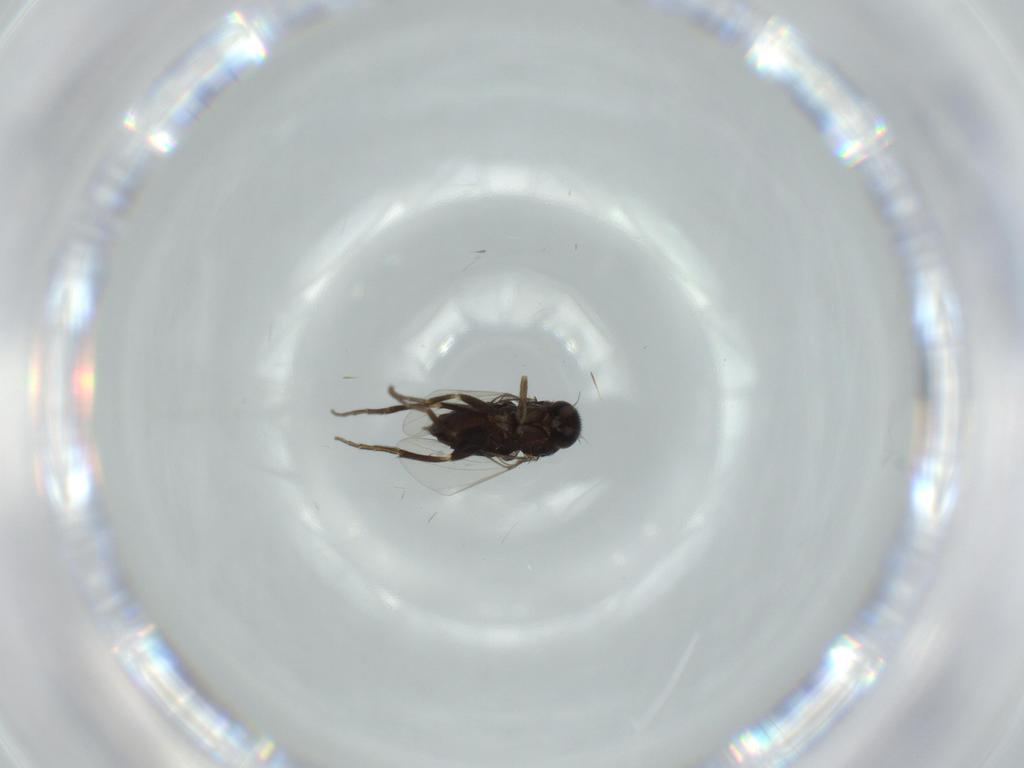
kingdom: Animalia
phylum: Arthropoda
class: Insecta
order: Diptera
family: Phoridae
